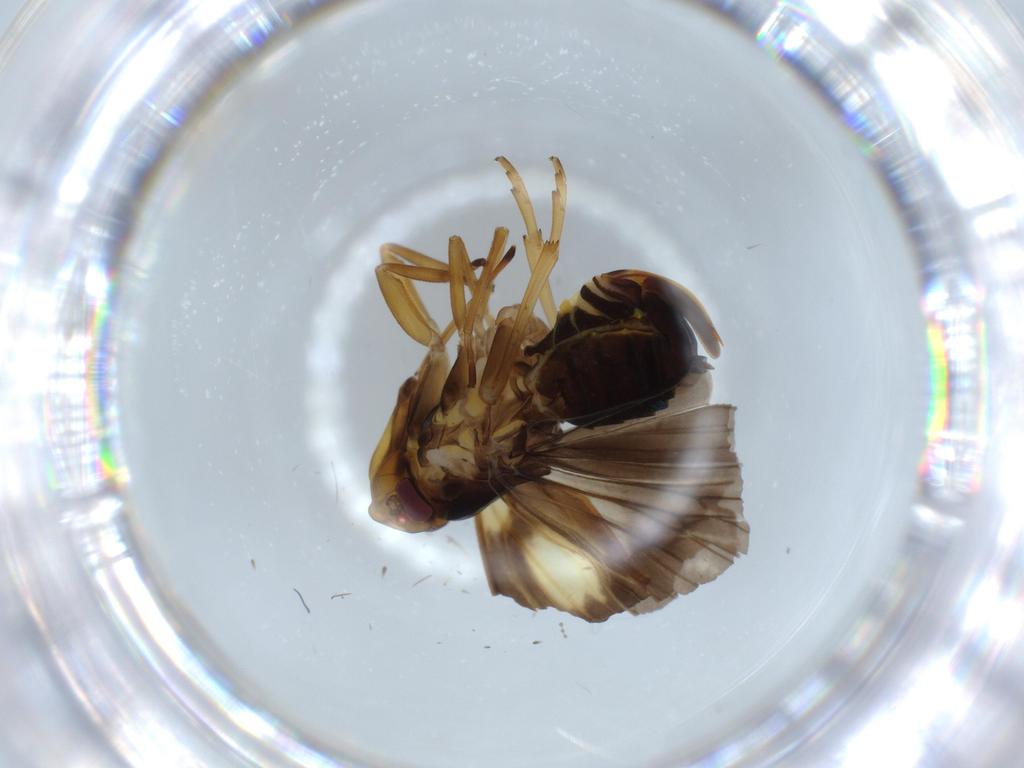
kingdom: Animalia
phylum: Arthropoda
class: Insecta
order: Hemiptera
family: Cixiidae
